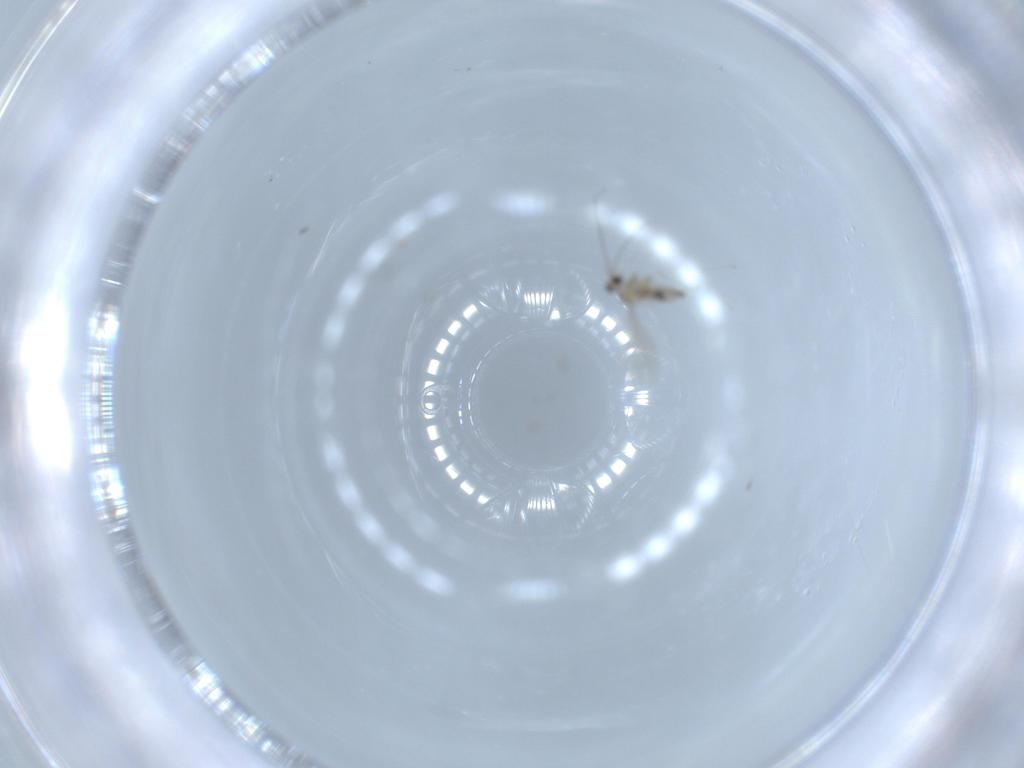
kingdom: Animalia
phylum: Arthropoda
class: Insecta
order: Diptera
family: Cecidomyiidae
